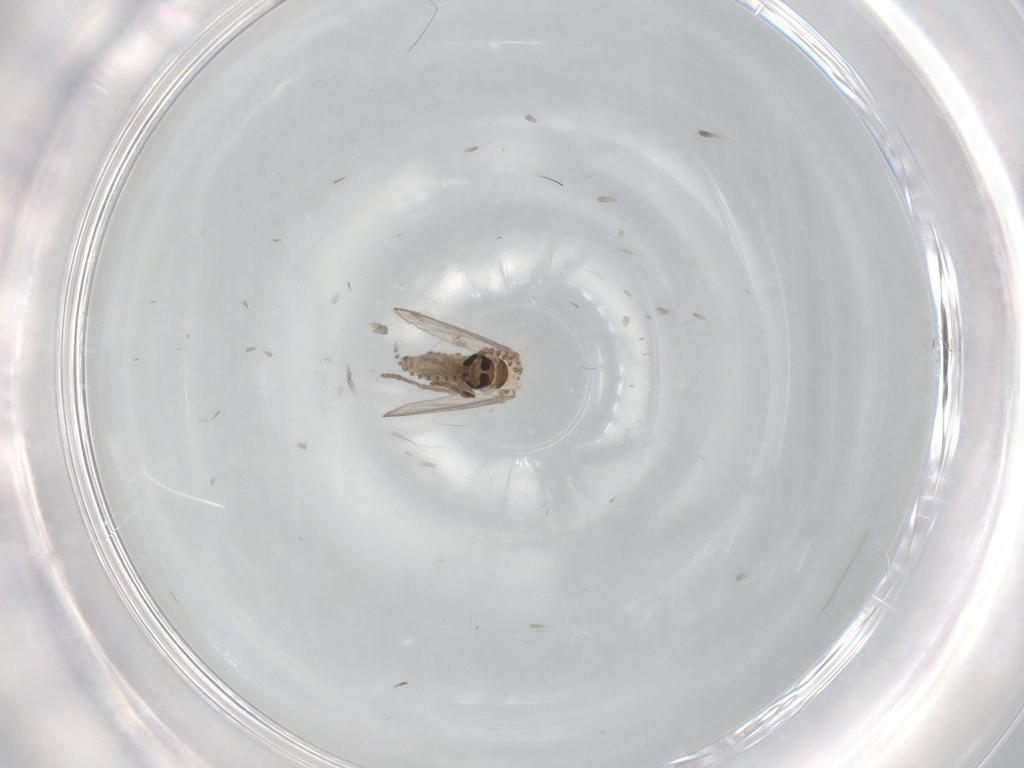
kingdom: Animalia
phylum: Arthropoda
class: Insecta
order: Diptera
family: Psychodidae
